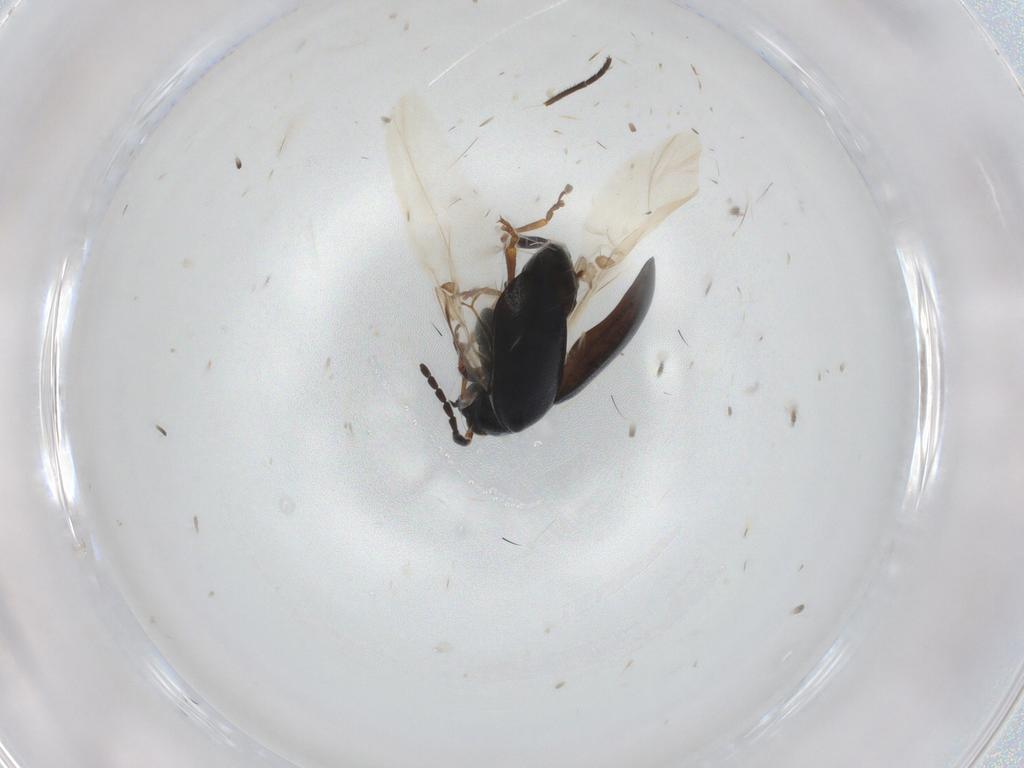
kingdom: Animalia
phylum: Arthropoda
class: Insecta
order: Coleoptera
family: Chrysomelidae
